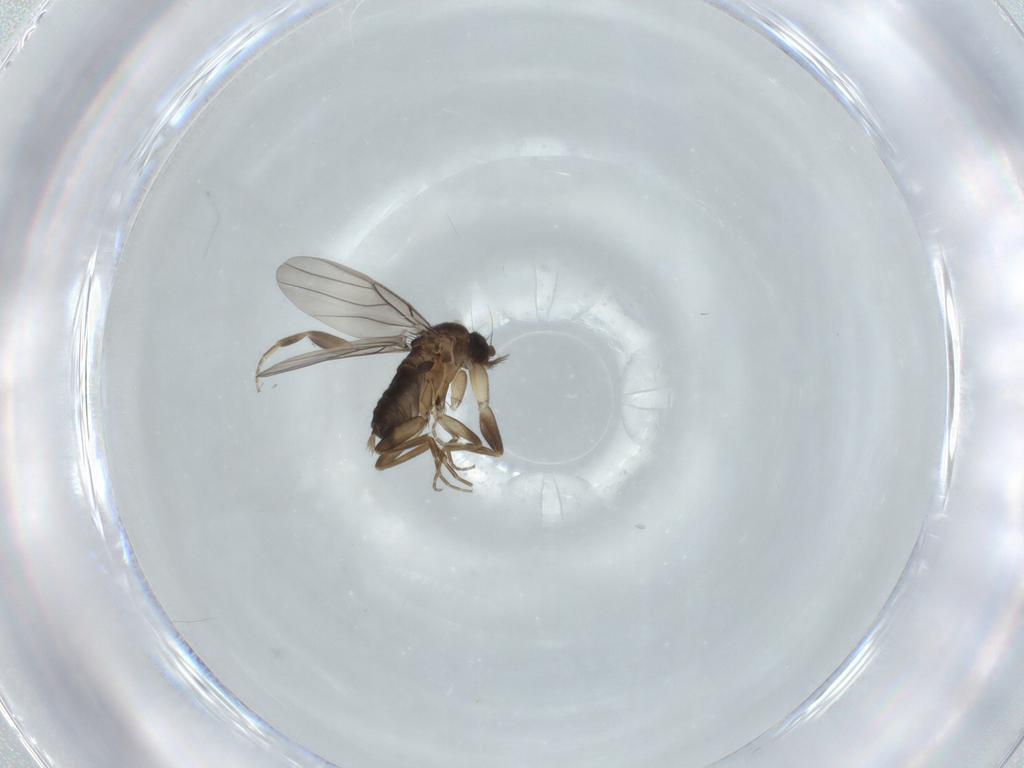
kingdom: Animalia
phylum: Arthropoda
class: Insecta
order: Diptera
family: Phoridae
